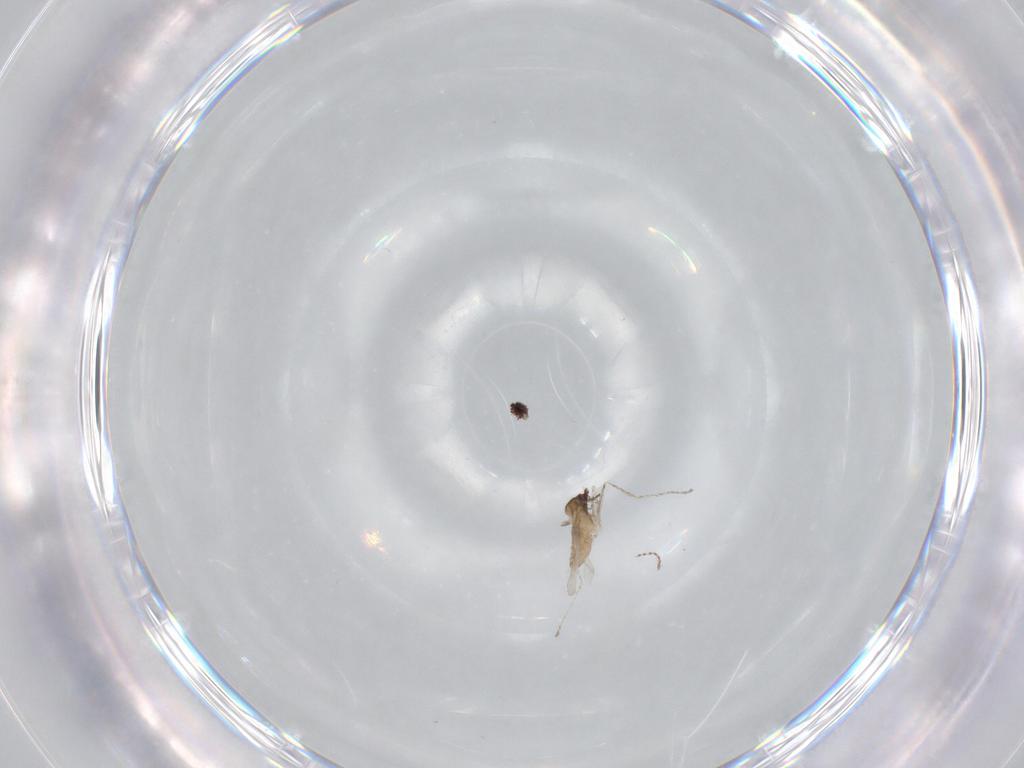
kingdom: Animalia
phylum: Arthropoda
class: Insecta
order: Diptera
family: Cecidomyiidae
